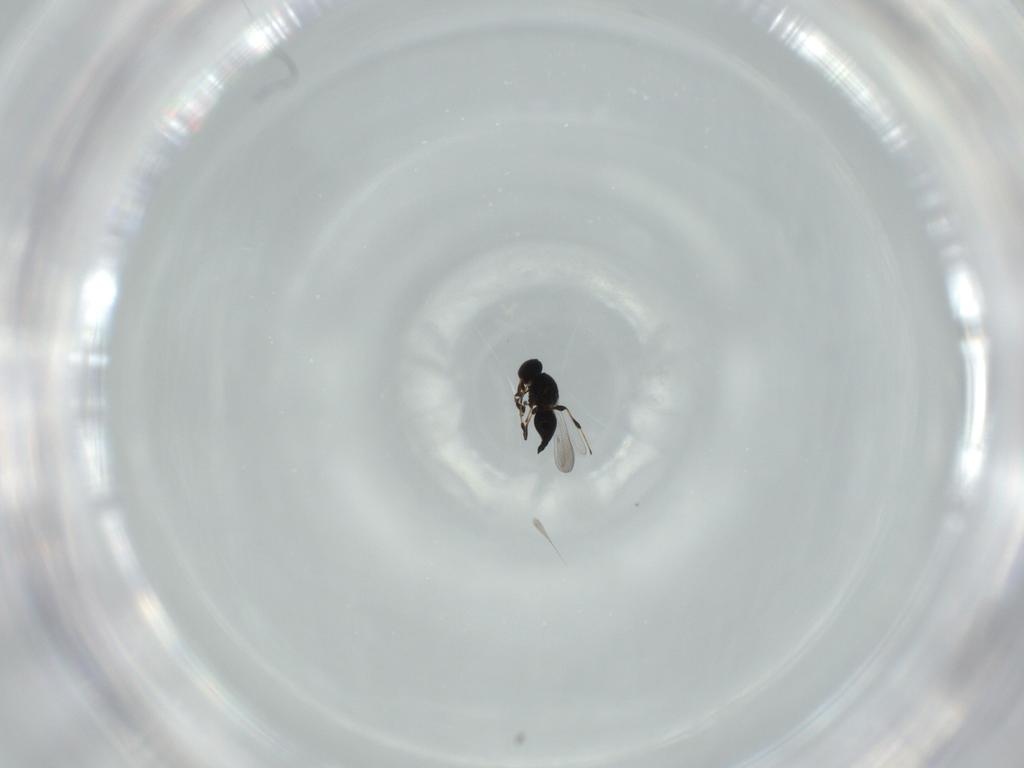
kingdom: Animalia
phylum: Arthropoda
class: Insecta
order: Hymenoptera
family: Platygastridae
